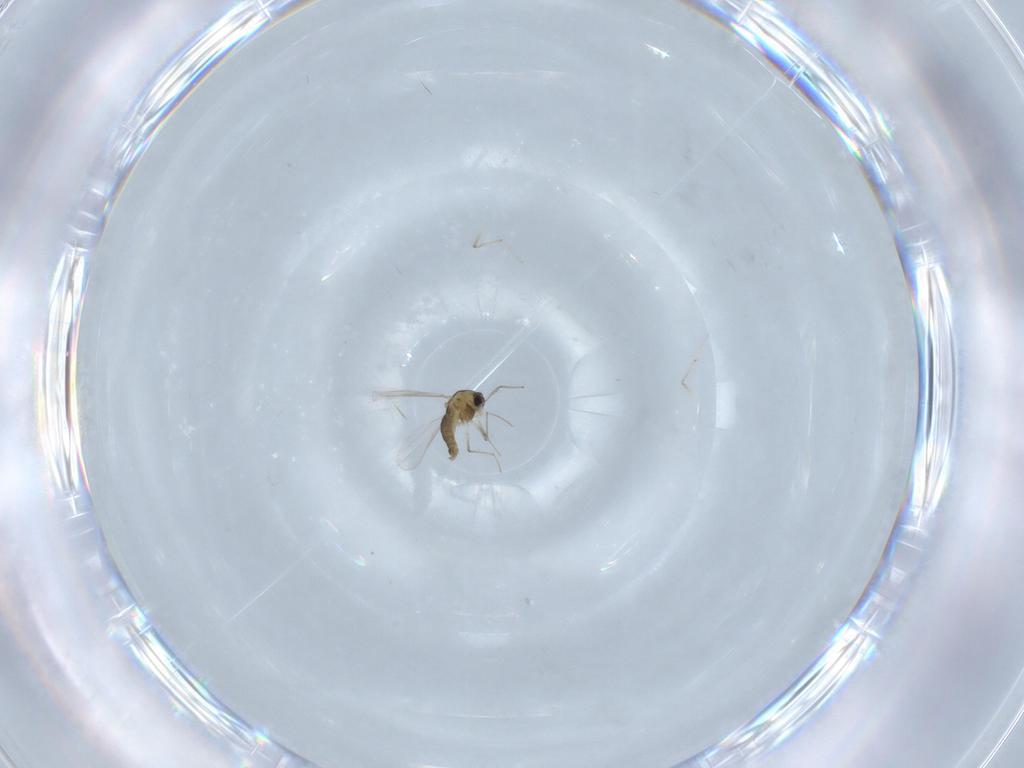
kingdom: Animalia
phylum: Arthropoda
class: Insecta
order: Diptera
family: Chironomidae
